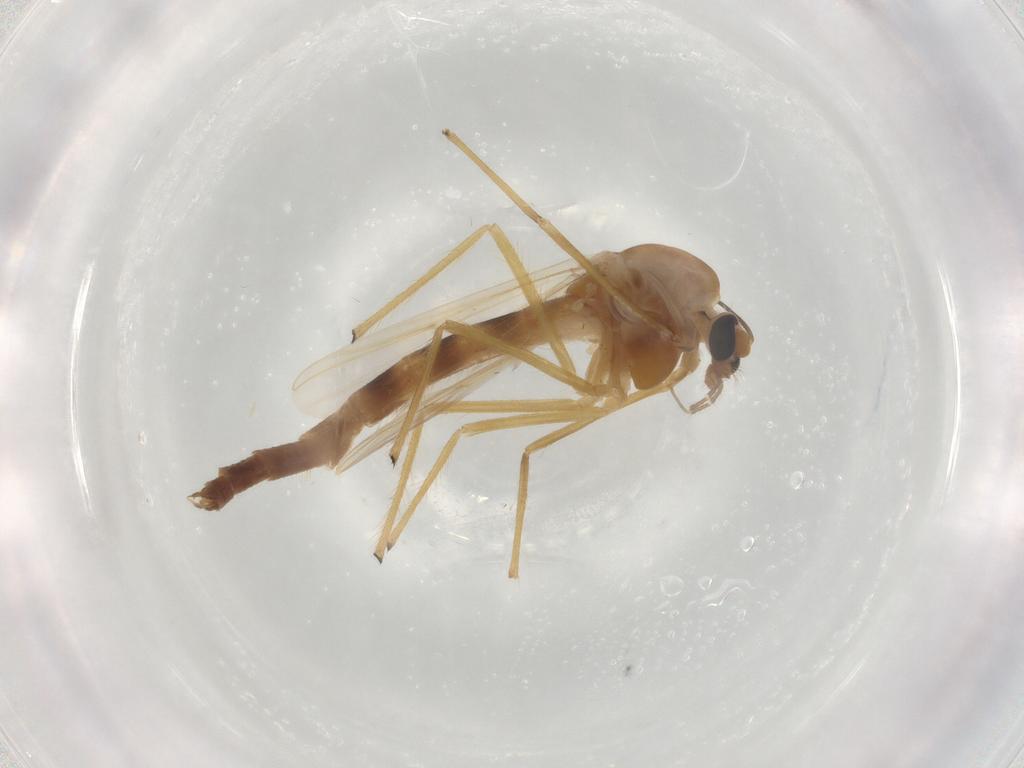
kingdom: Animalia
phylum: Arthropoda
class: Insecta
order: Diptera
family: Chironomidae
